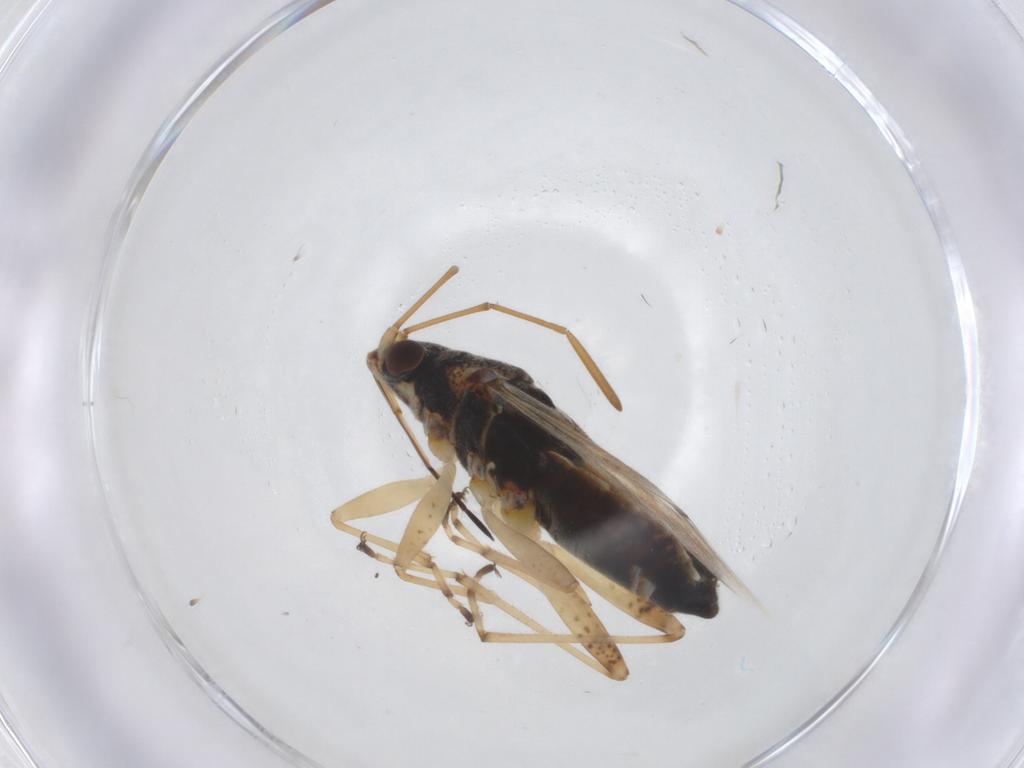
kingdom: Animalia
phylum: Arthropoda
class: Insecta
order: Hemiptera
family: Lygaeidae
